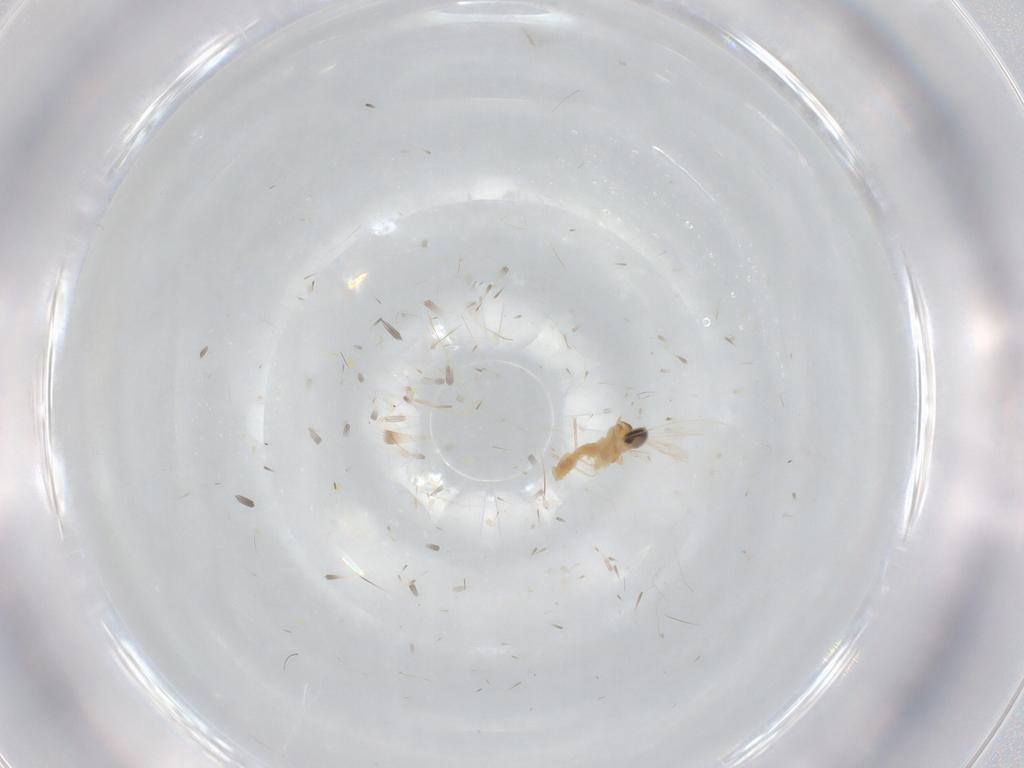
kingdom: Animalia
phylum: Arthropoda
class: Insecta
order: Diptera
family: Cecidomyiidae
